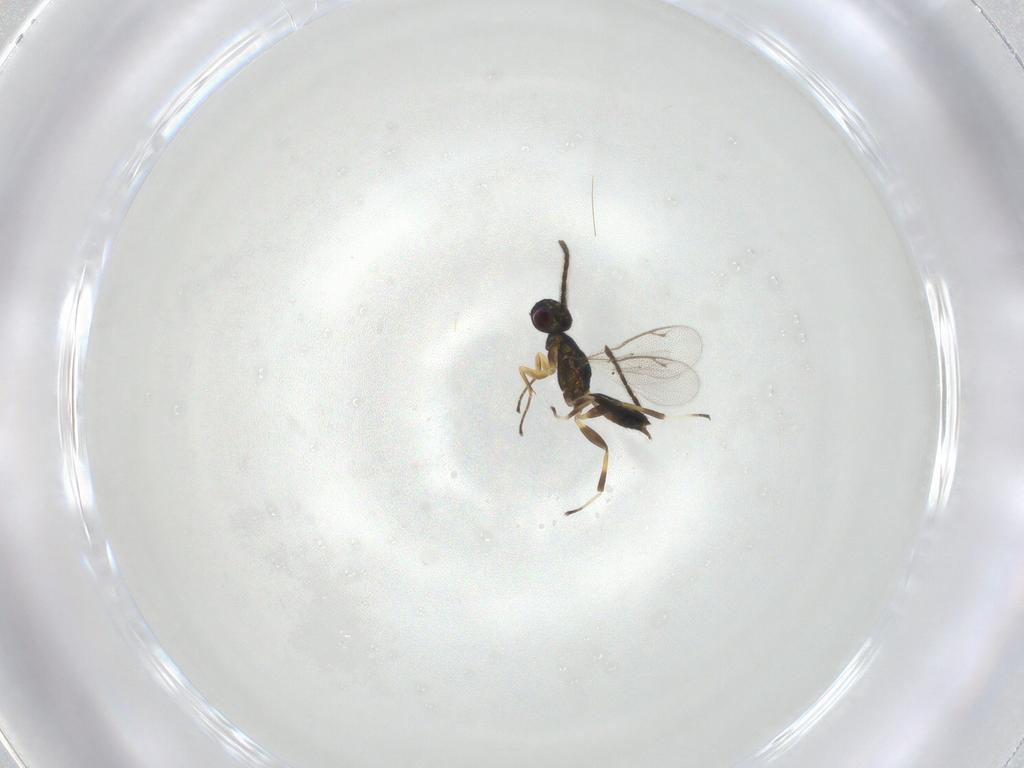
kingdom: Animalia
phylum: Arthropoda
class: Insecta
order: Hymenoptera
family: Eupelmidae
